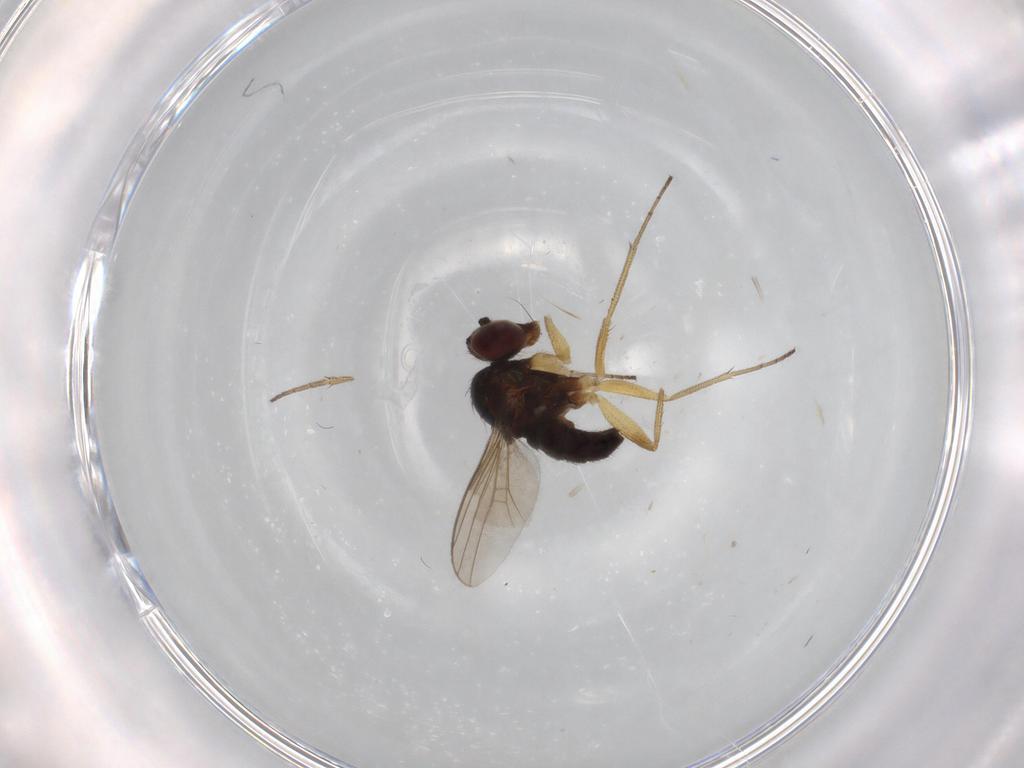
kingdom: Animalia
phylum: Arthropoda
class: Insecta
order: Diptera
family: Dolichopodidae
